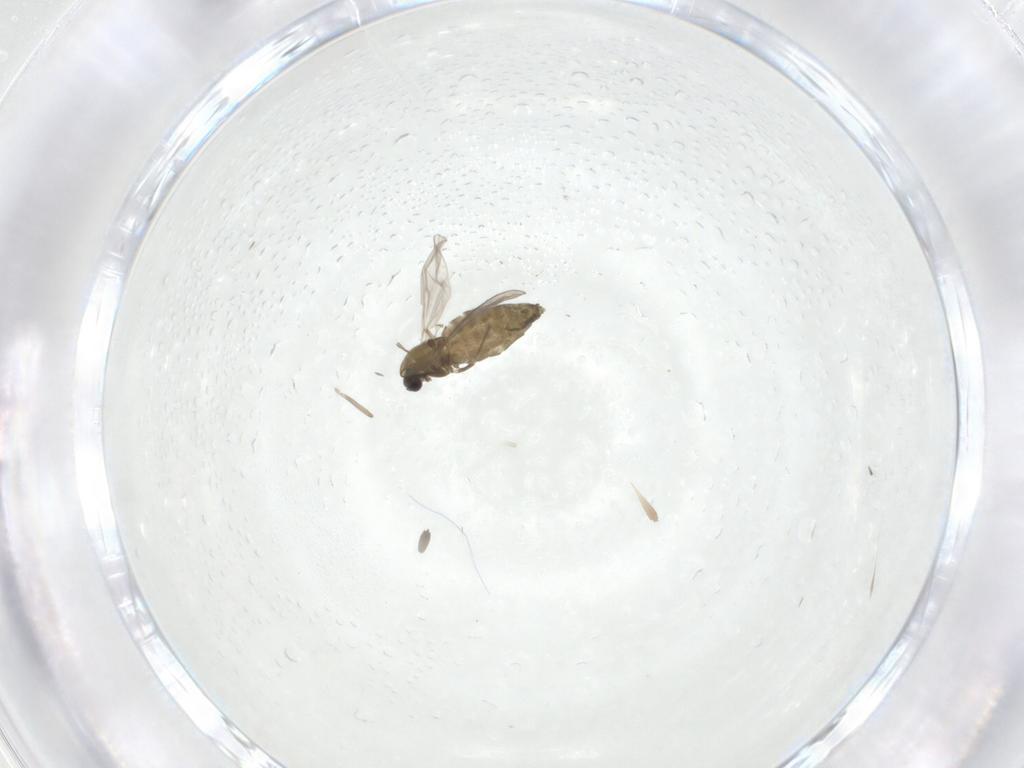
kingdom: Animalia
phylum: Arthropoda
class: Insecta
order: Diptera
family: Chironomidae
